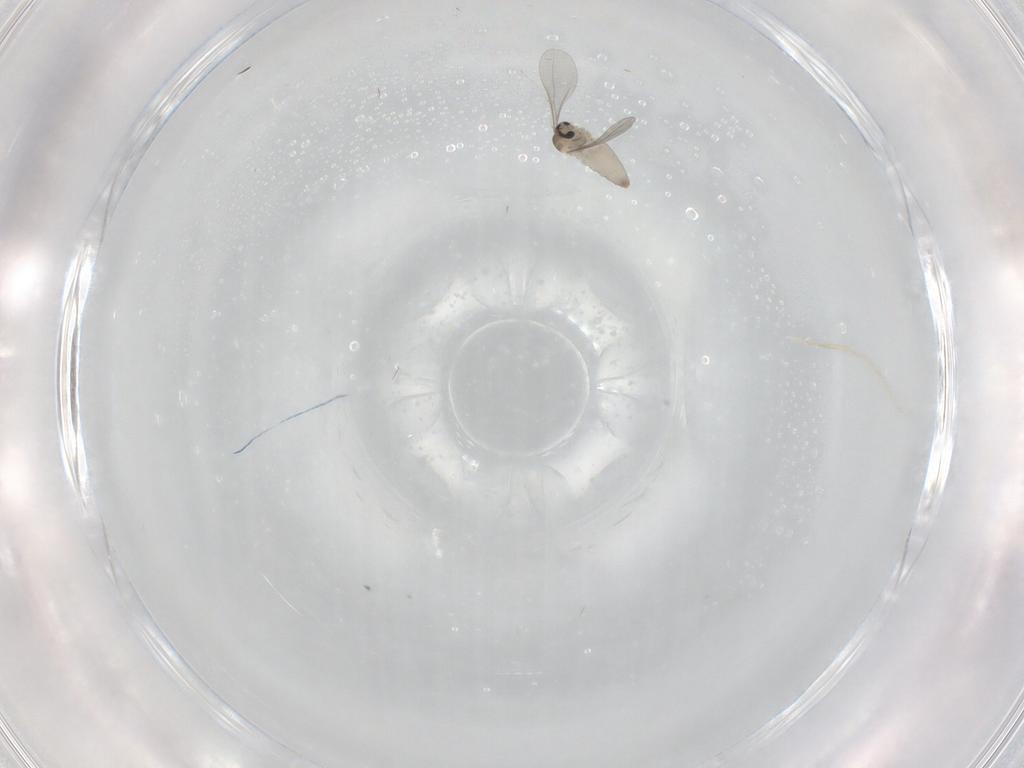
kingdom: Animalia
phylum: Arthropoda
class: Insecta
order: Diptera
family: Cecidomyiidae
